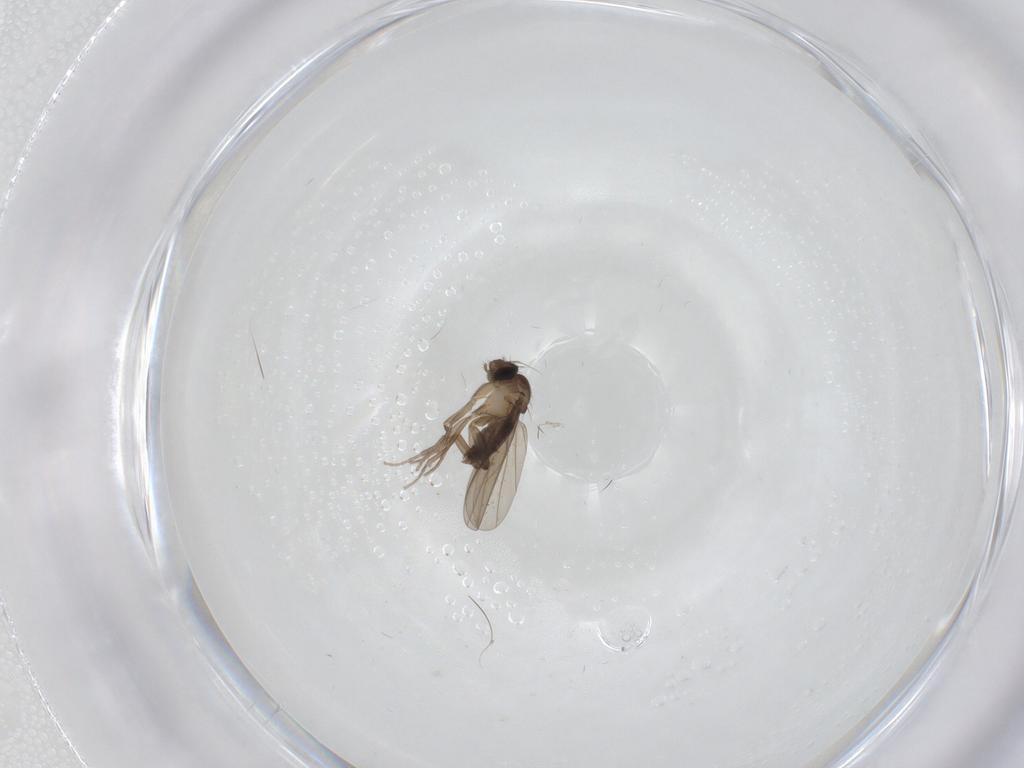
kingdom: Animalia
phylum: Arthropoda
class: Insecta
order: Diptera
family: Phoridae
